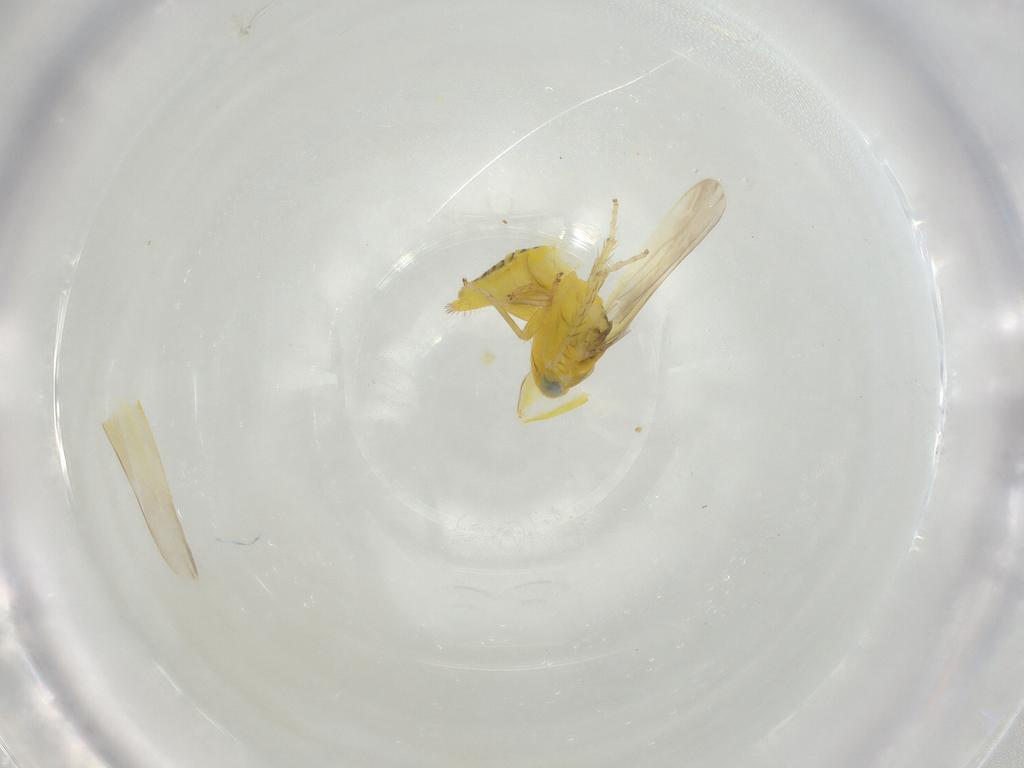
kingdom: Animalia
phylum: Arthropoda
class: Insecta
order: Hemiptera
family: Cicadellidae
